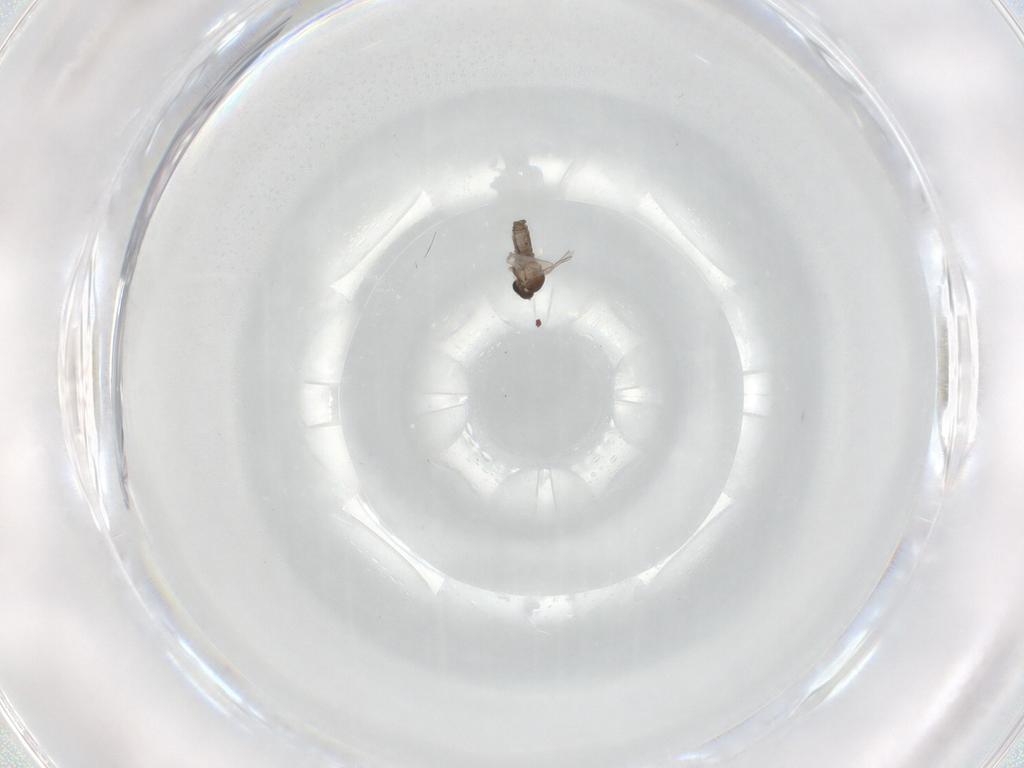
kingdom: Animalia
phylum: Arthropoda
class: Insecta
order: Diptera
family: Cecidomyiidae
